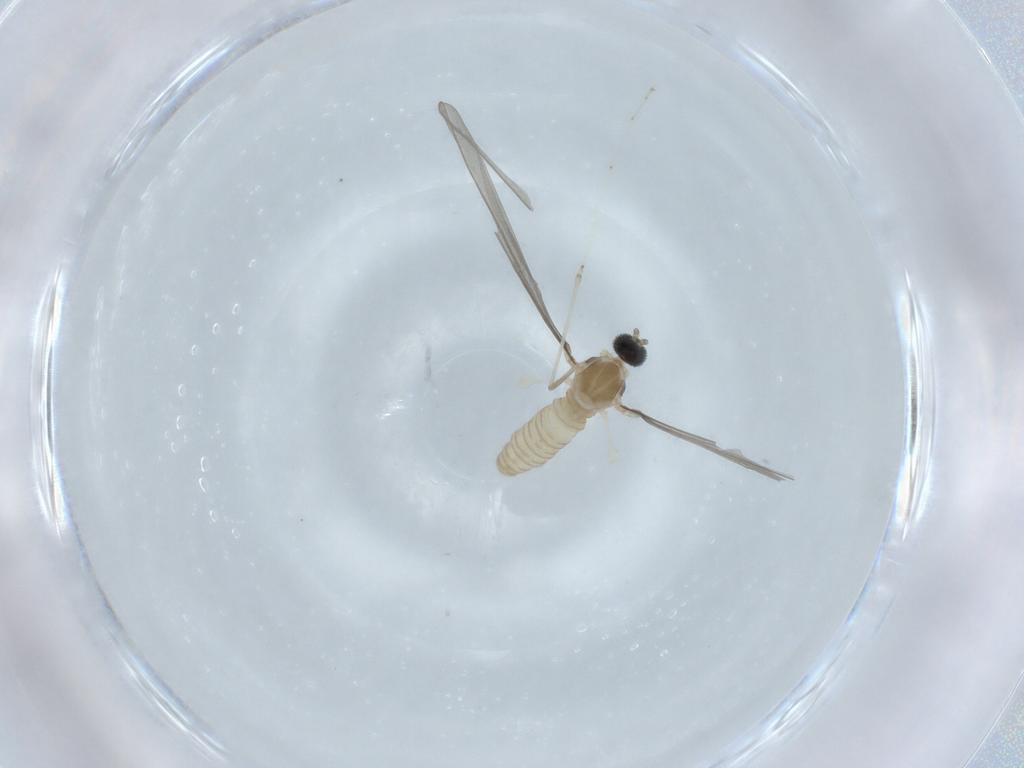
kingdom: Animalia
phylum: Arthropoda
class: Insecta
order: Diptera
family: Cecidomyiidae
